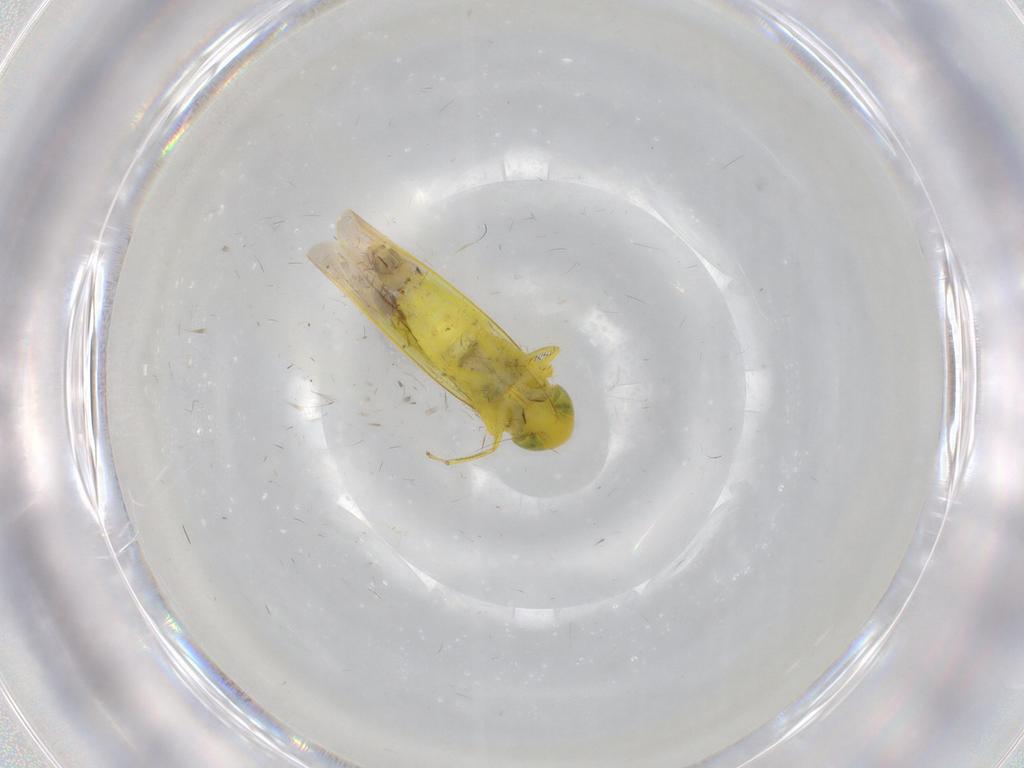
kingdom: Animalia
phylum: Arthropoda
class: Insecta
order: Hemiptera
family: Cicadellidae
